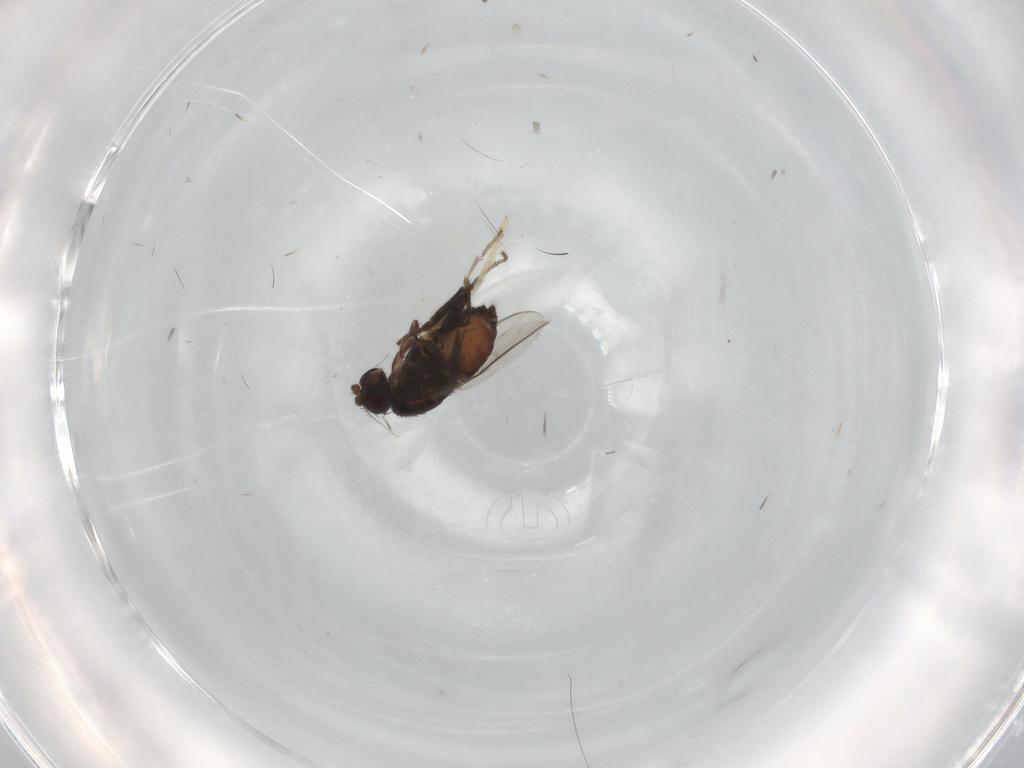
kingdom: Animalia
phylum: Arthropoda
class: Insecta
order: Diptera
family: Sphaeroceridae
